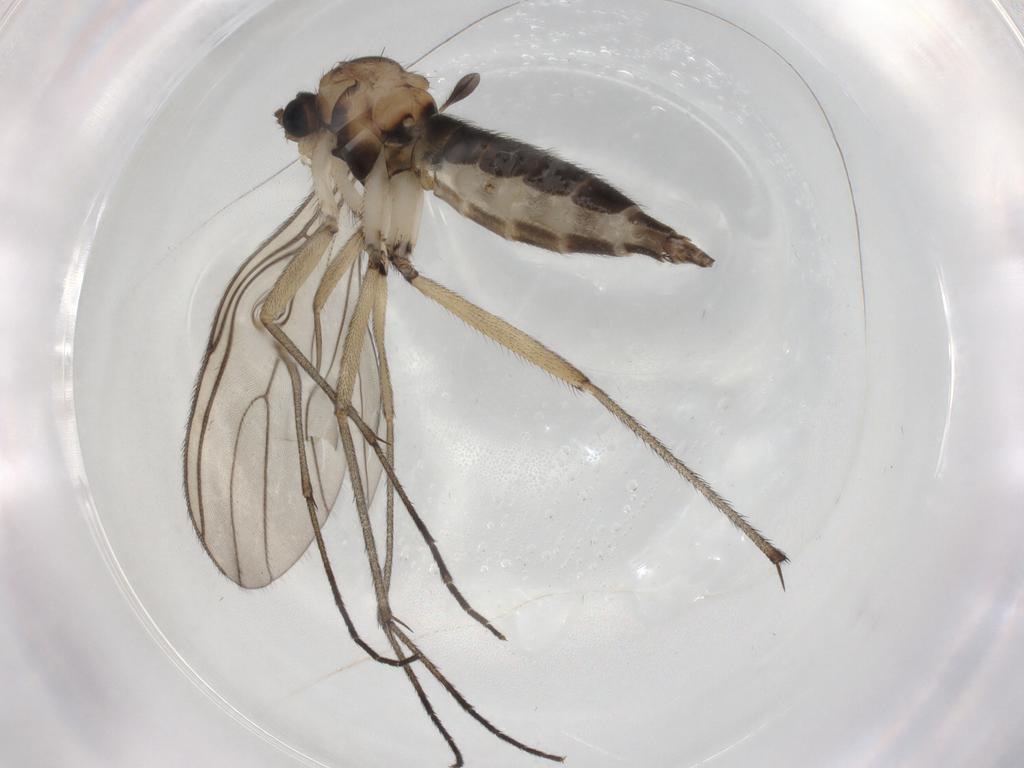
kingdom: Animalia
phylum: Arthropoda
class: Insecta
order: Diptera
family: Sciaridae
